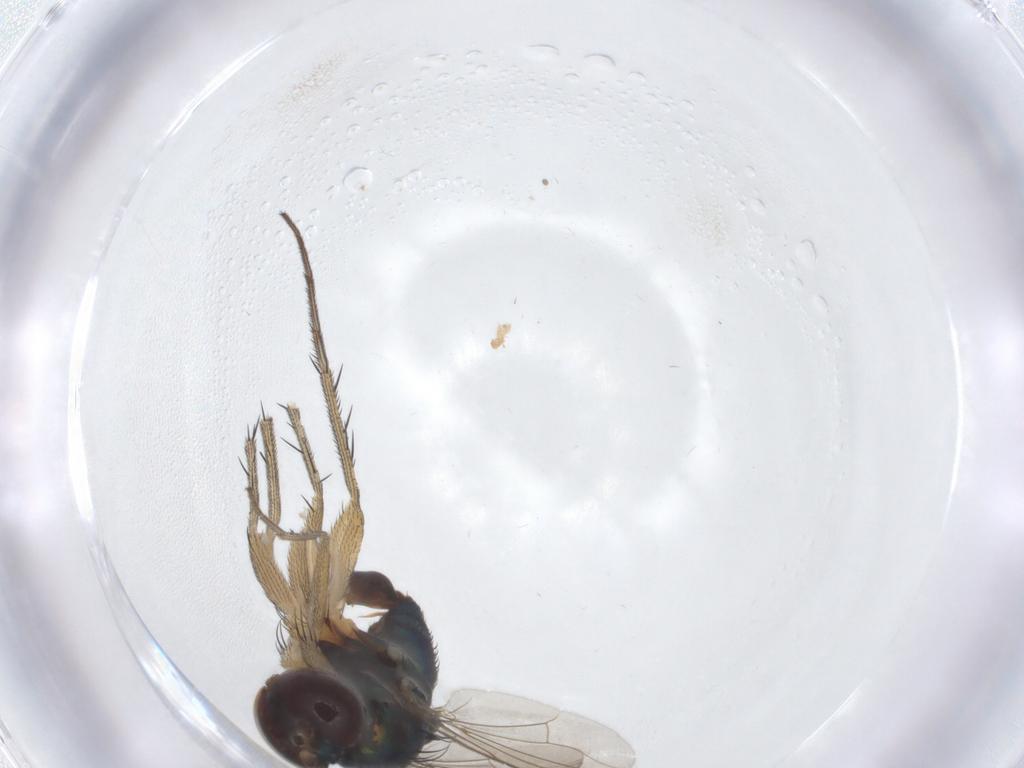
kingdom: Animalia
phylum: Arthropoda
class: Insecta
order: Diptera
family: Dolichopodidae
